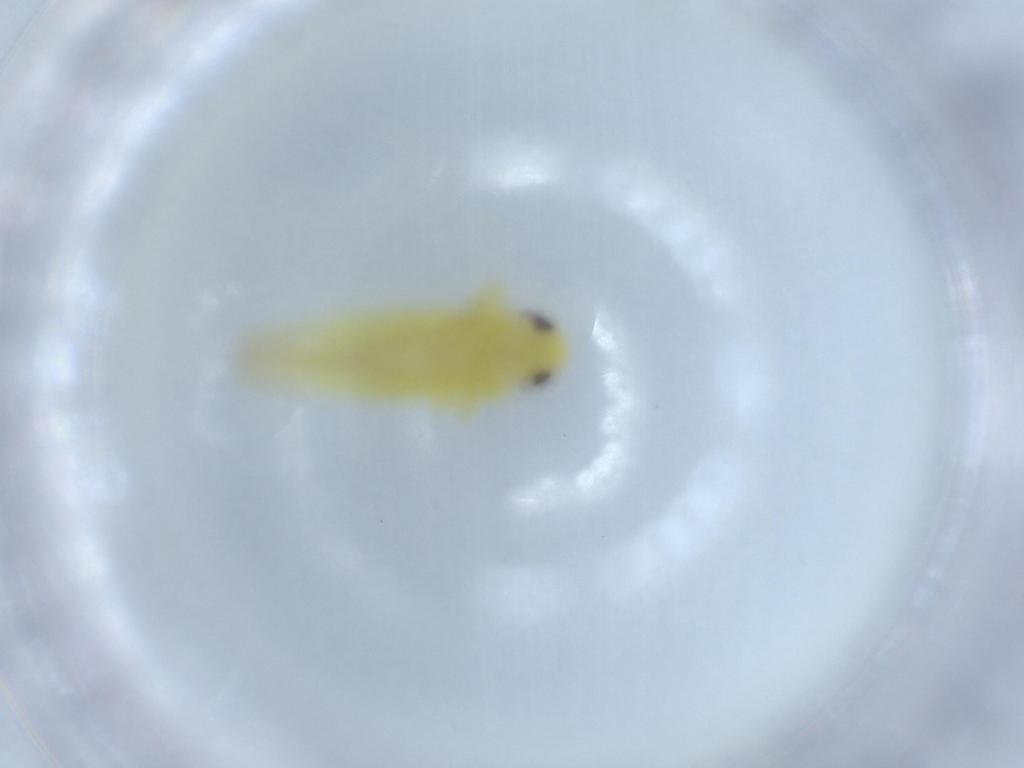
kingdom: Animalia
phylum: Arthropoda
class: Insecta
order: Hemiptera
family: Cicadellidae
